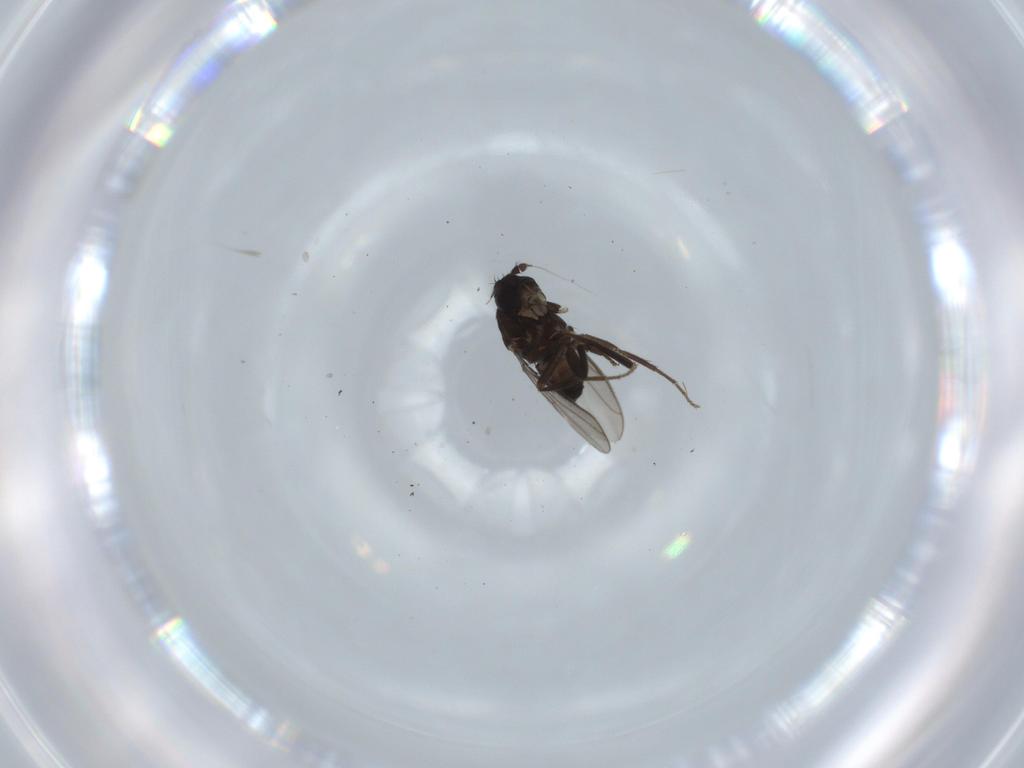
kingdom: Animalia
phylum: Arthropoda
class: Insecta
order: Diptera
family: Sphaeroceridae
